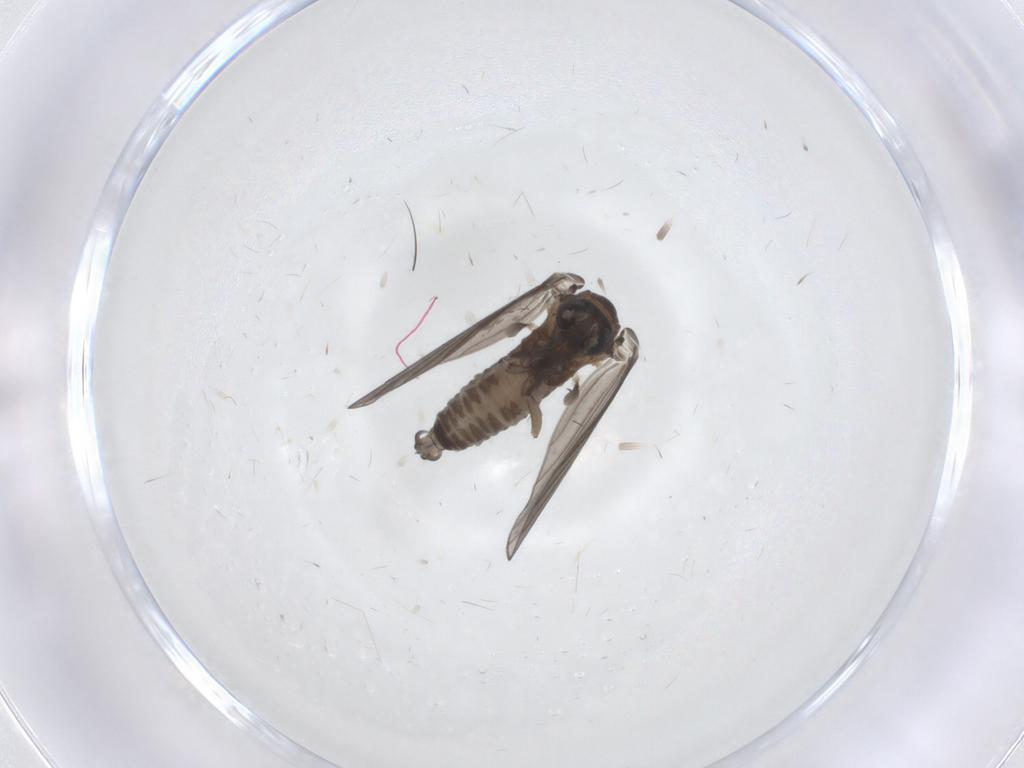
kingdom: Animalia
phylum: Arthropoda
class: Insecta
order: Diptera
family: Psychodidae
